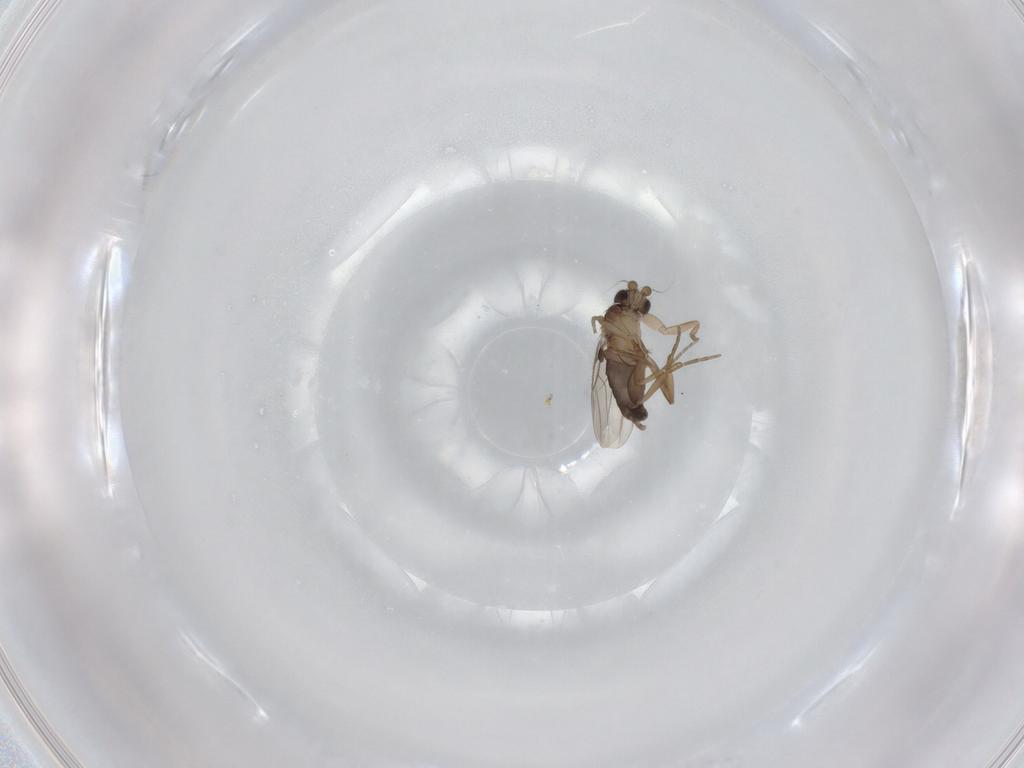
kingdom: Animalia
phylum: Arthropoda
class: Insecta
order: Diptera
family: Phoridae
